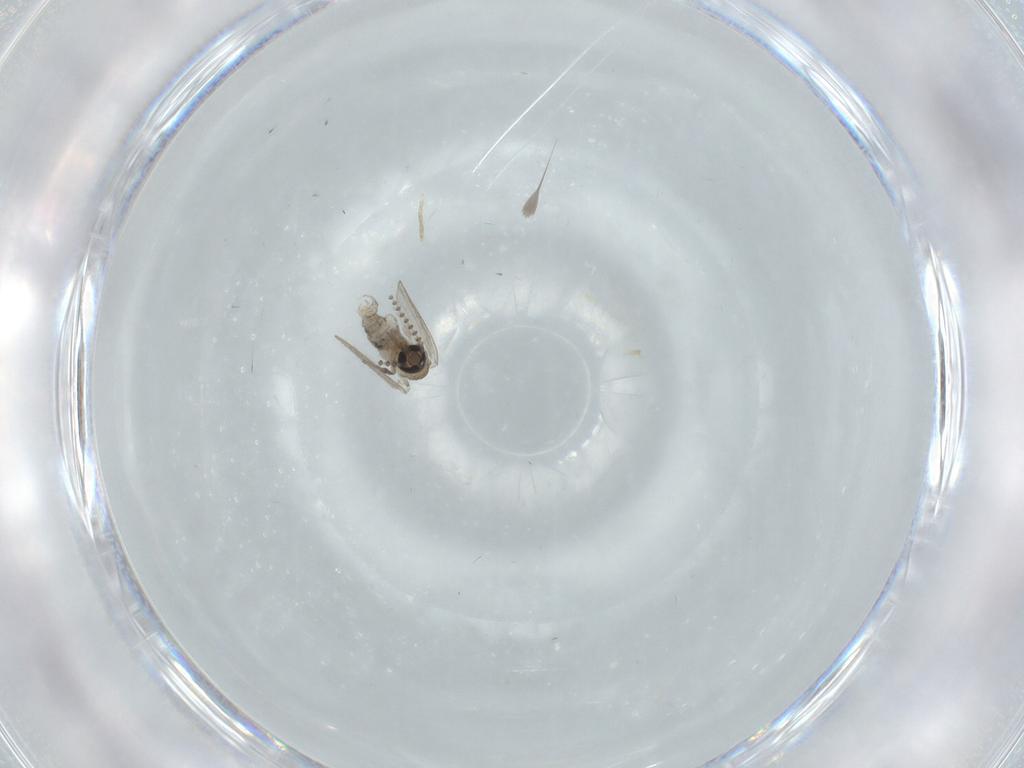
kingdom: Animalia
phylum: Arthropoda
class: Insecta
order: Diptera
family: Psychodidae
